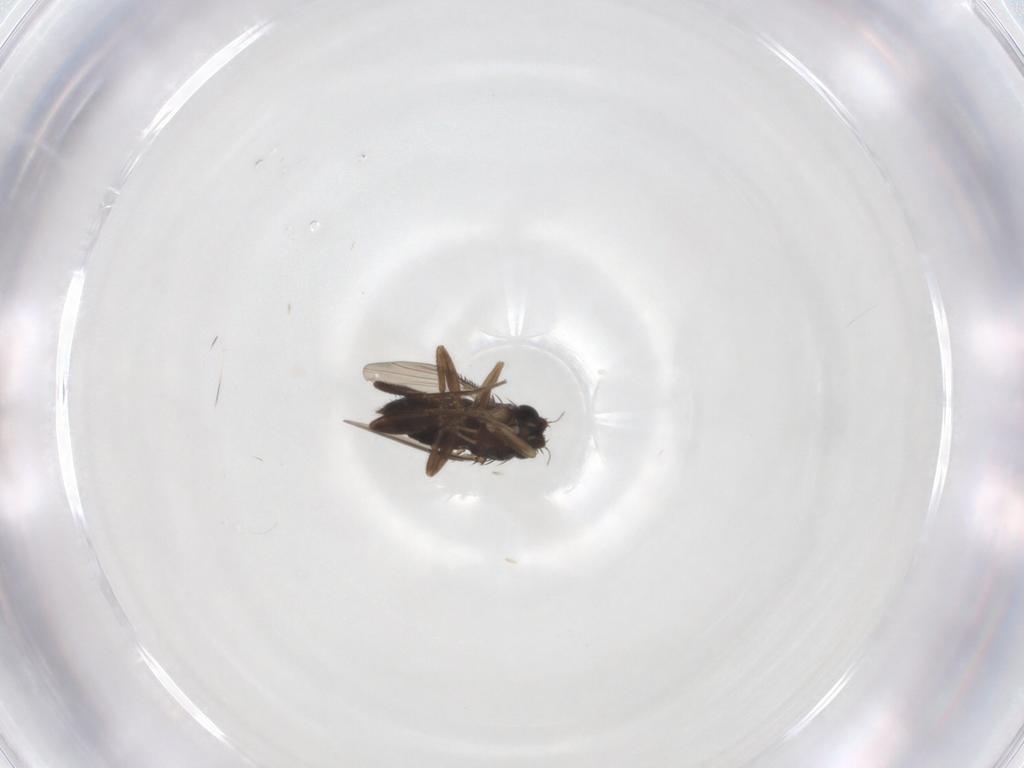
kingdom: Animalia
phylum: Arthropoda
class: Insecta
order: Diptera
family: Phoridae
